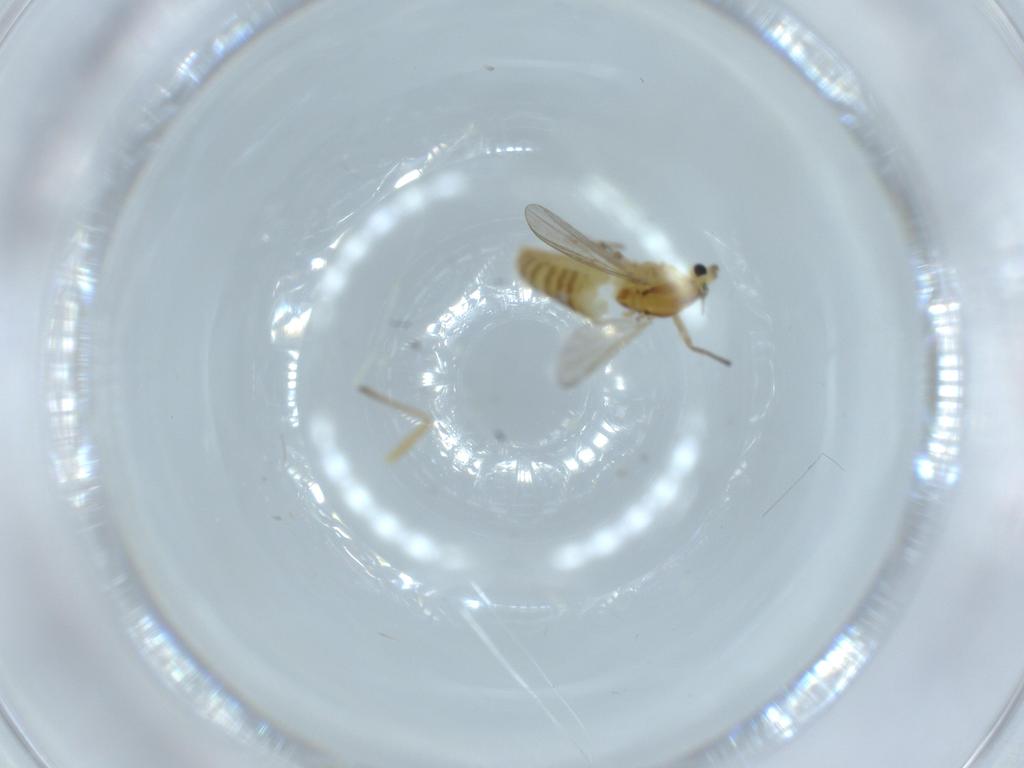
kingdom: Animalia
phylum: Arthropoda
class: Insecta
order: Diptera
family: Chironomidae
